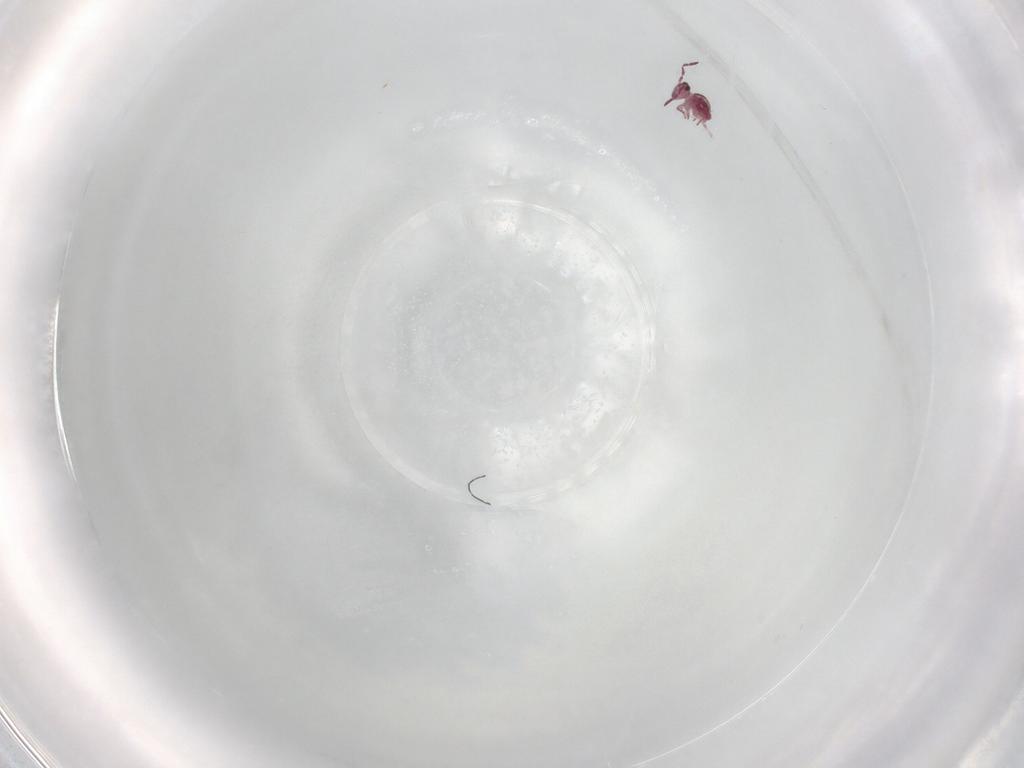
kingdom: Animalia
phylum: Arthropoda
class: Collembola
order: Symphypleona
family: Sminthurididae
